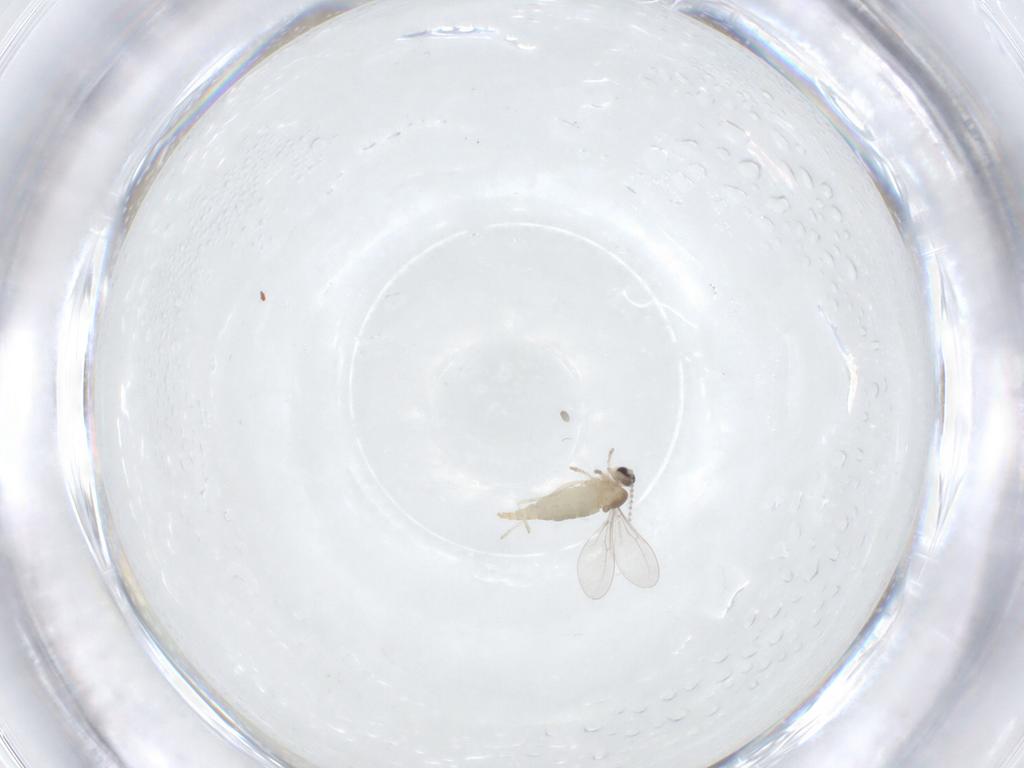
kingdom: Animalia
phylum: Arthropoda
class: Insecta
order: Diptera
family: Cecidomyiidae
